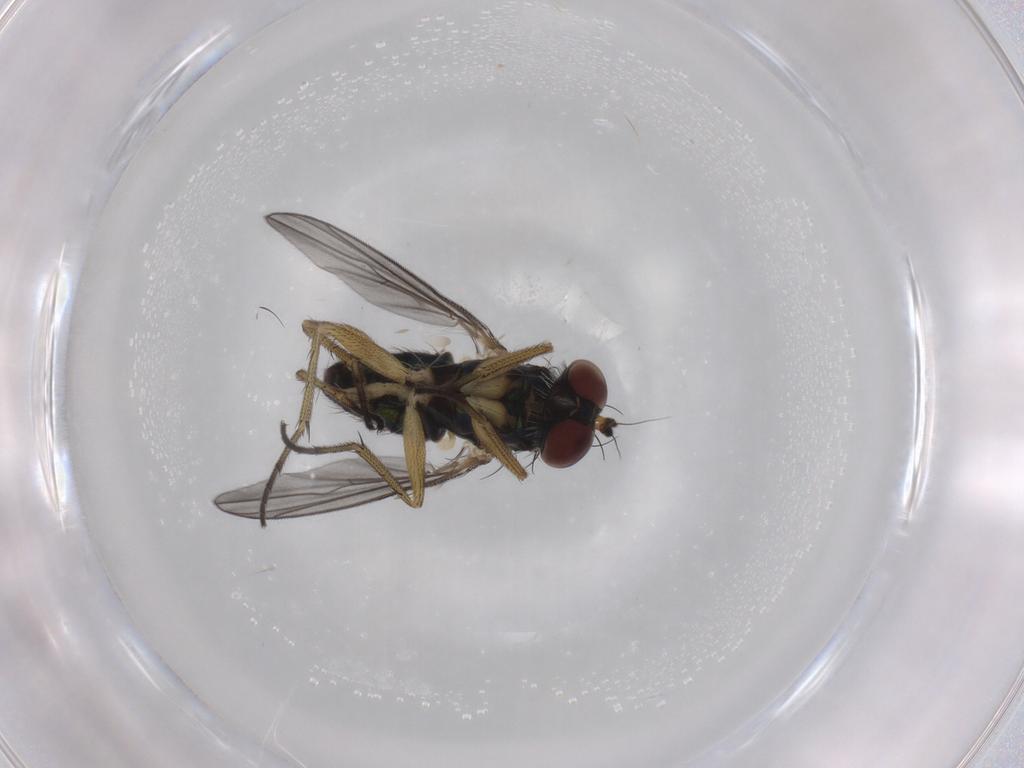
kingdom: Animalia
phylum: Arthropoda
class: Insecta
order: Diptera
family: Dolichopodidae
